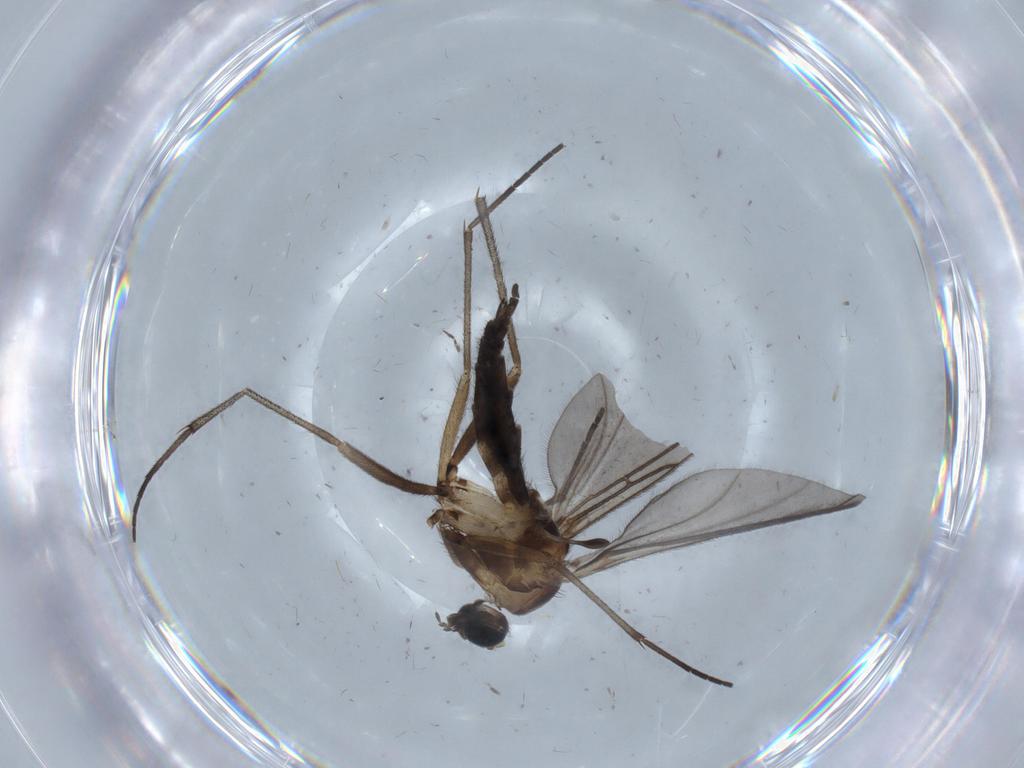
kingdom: Animalia
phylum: Arthropoda
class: Insecta
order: Diptera
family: Sciaridae
